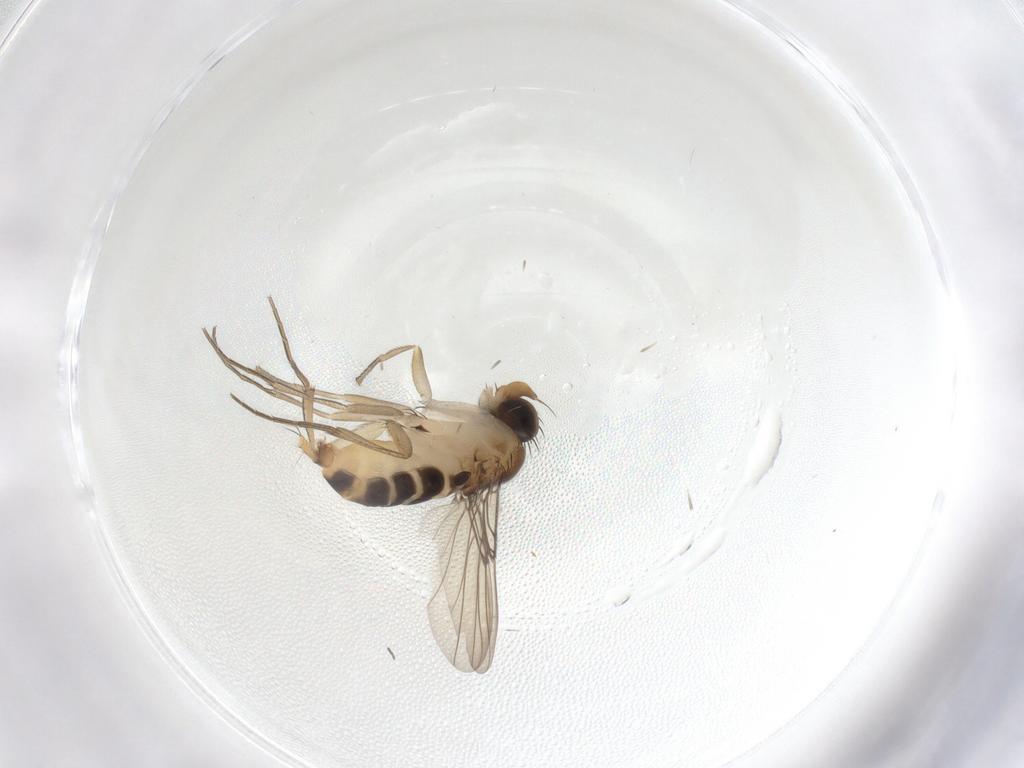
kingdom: Animalia
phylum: Arthropoda
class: Insecta
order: Diptera
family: Phoridae
